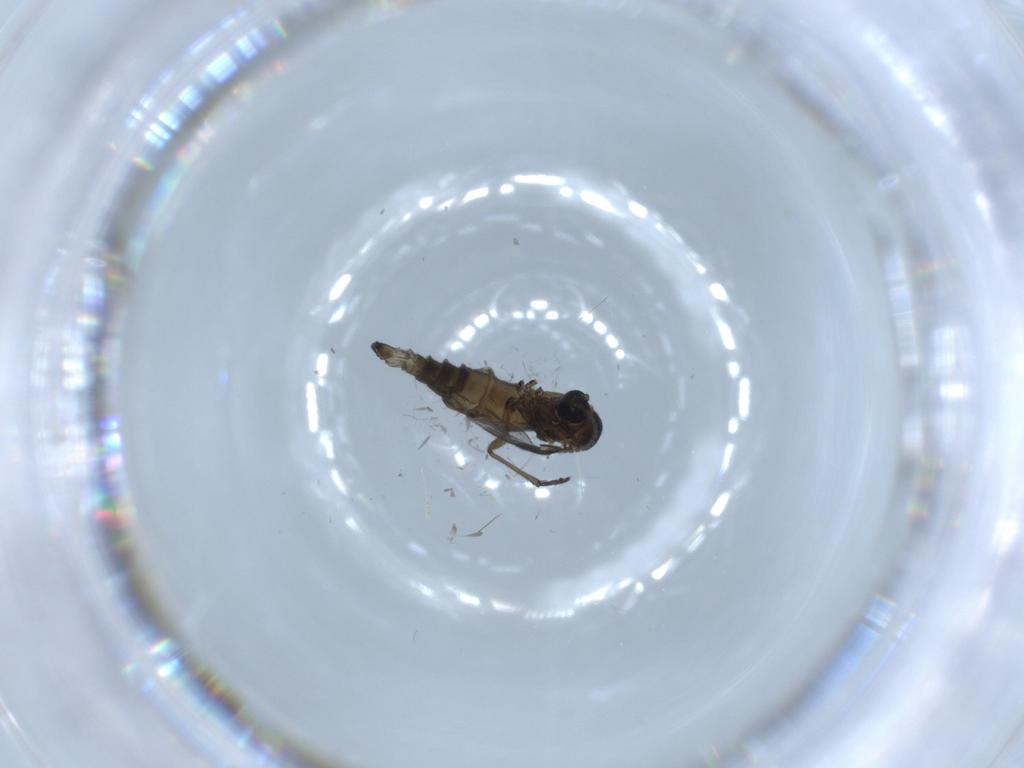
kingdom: Animalia
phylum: Arthropoda
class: Insecta
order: Diptera
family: Sciaridae
